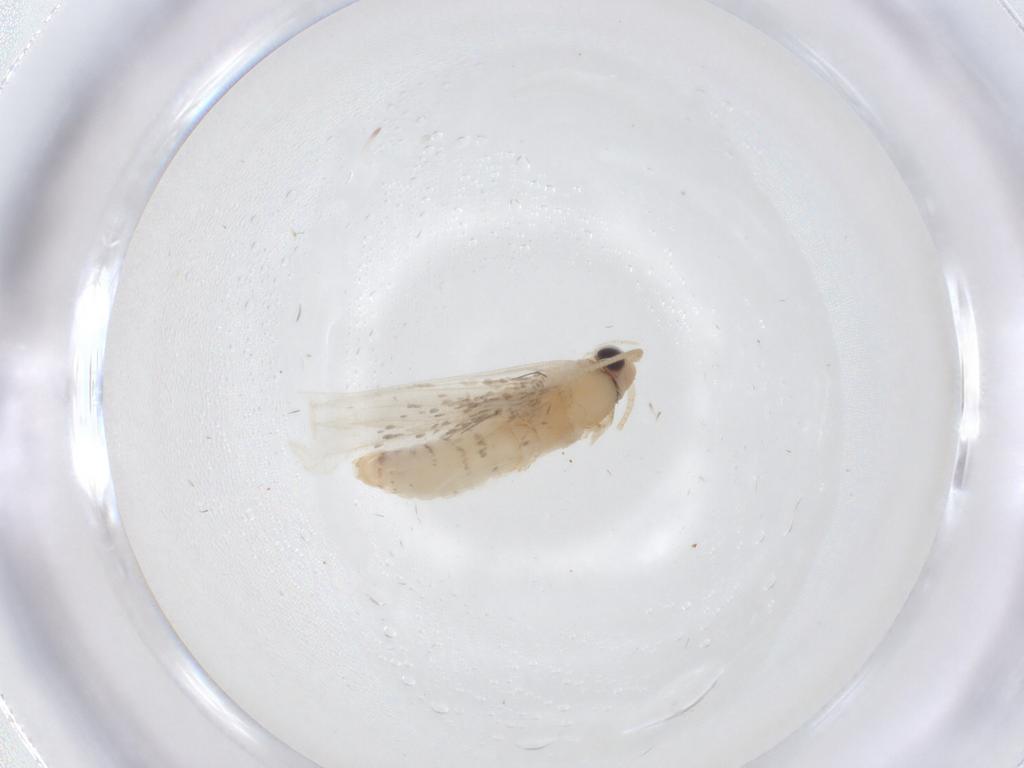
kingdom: Animalia
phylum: Arthropoda
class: Insecta
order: Lepidoptera
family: Tineidae
